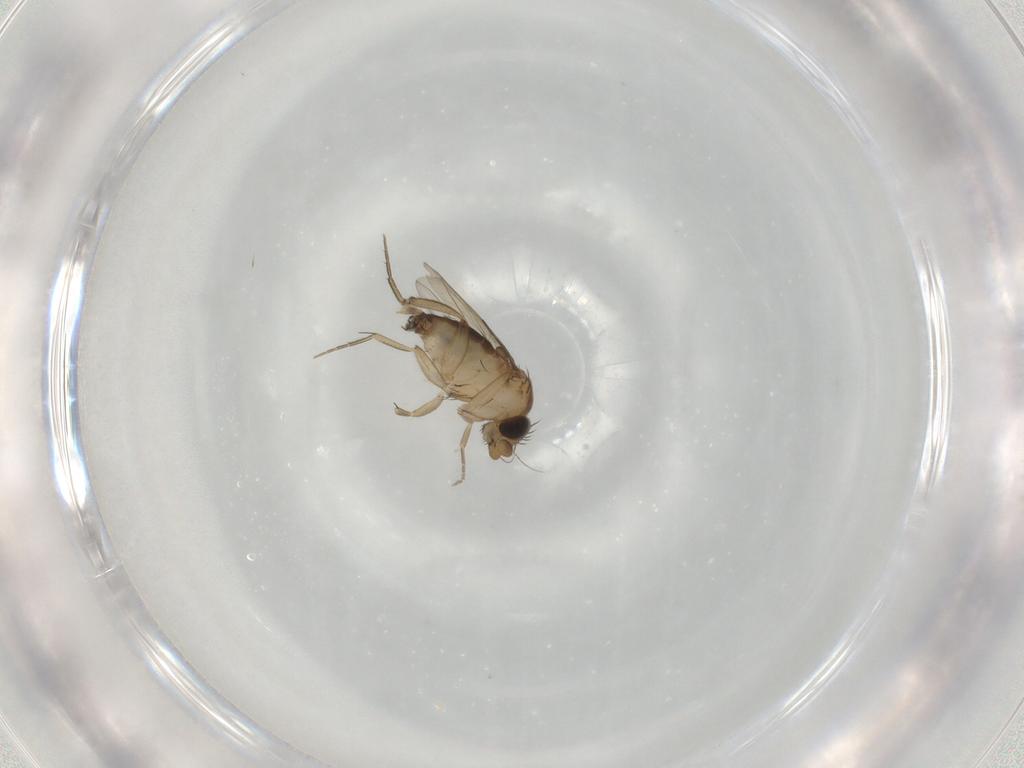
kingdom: Animalia
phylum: Arthropoda
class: Insecta
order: Diptera
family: Phoridae
